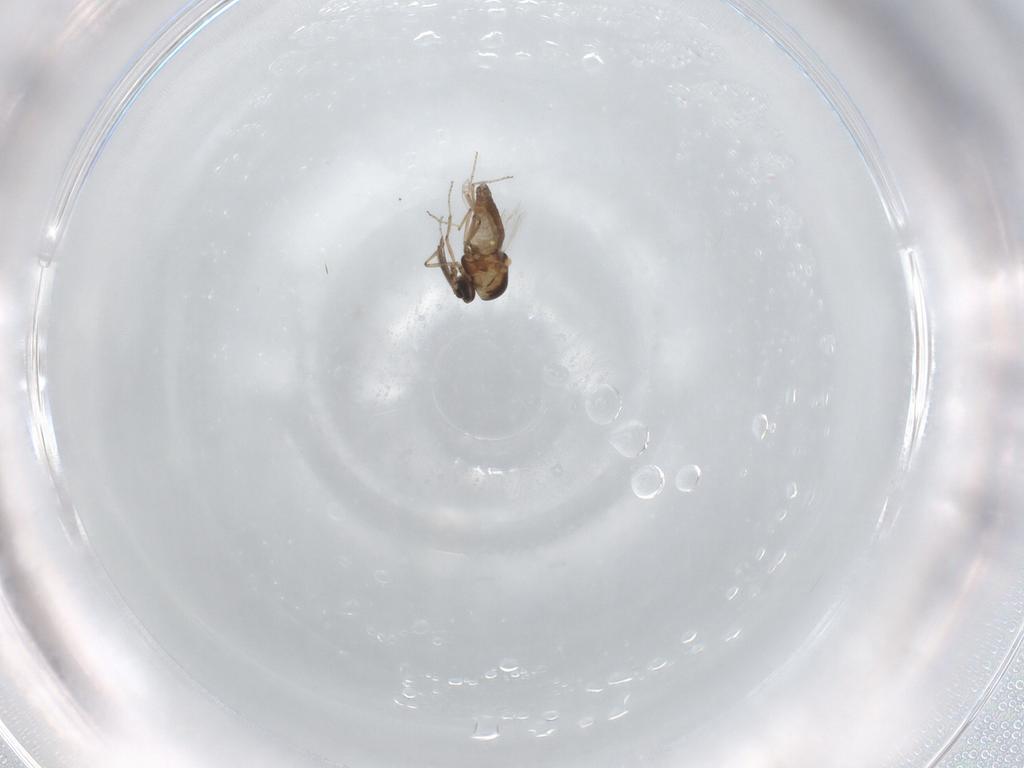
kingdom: Animalia
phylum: Arthropoda
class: Insecta
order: Diptera
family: Ceratopogonidae
